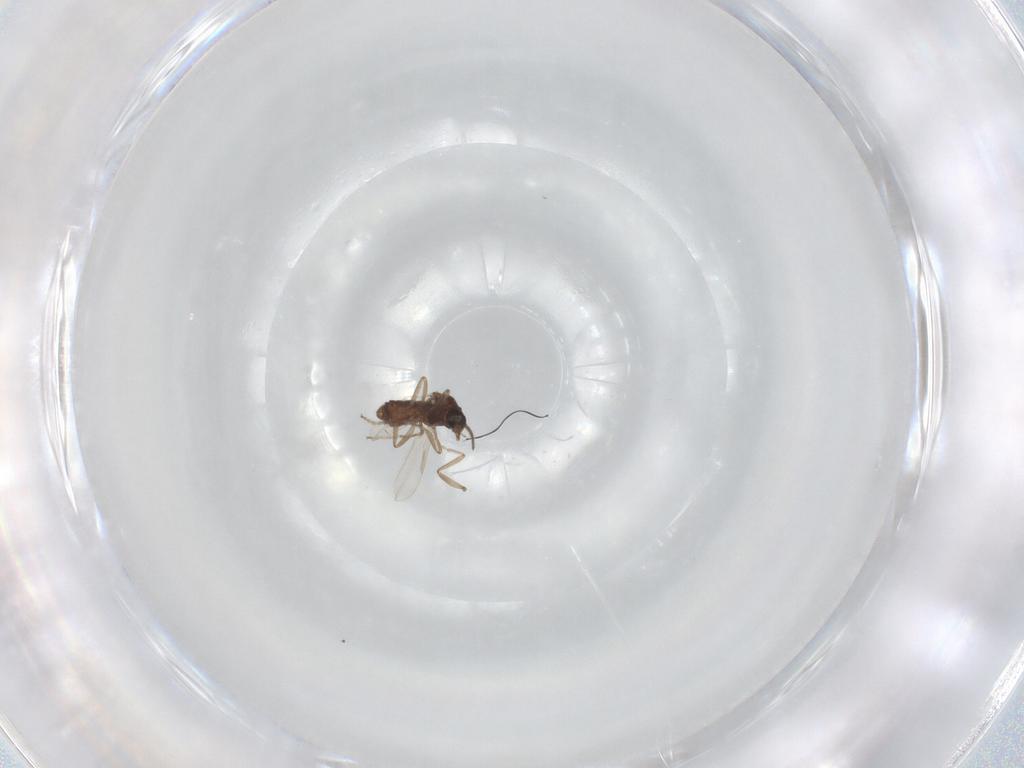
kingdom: Animalia
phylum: Arthropoda
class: Insecta
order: Diptera
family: Ceratopogonidae
